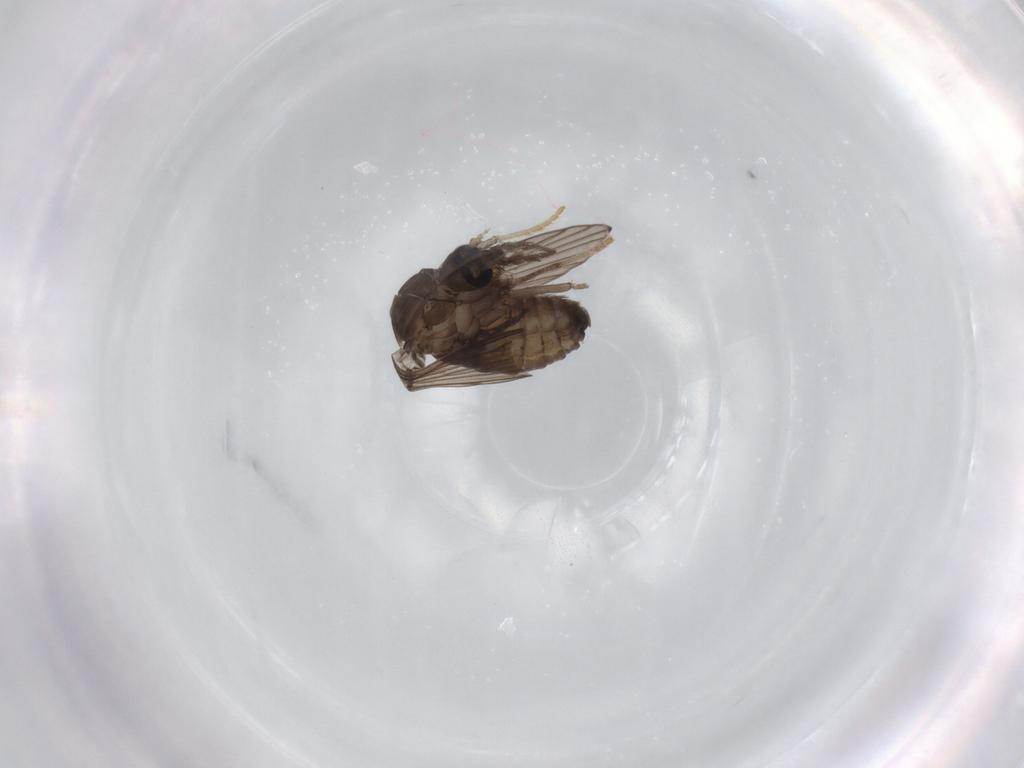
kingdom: Animalia
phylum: Arthropoda
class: Insecta
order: Diptera
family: Psychodidae
